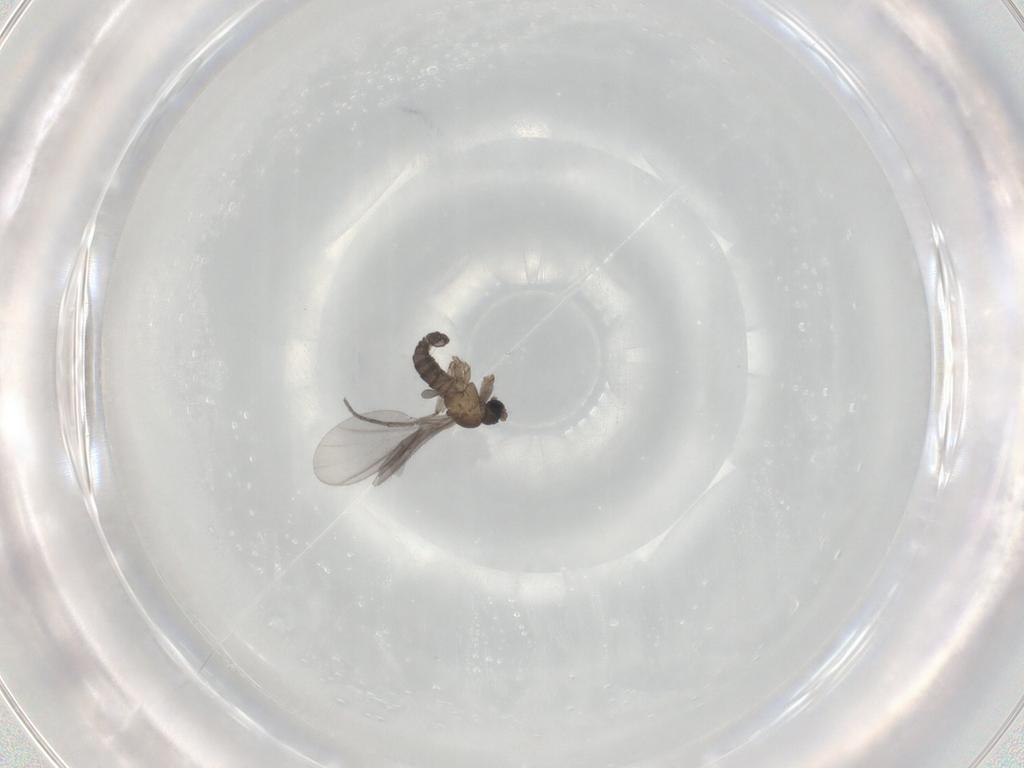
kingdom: Animalia
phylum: Arthropoda
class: Insecta
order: Diptera
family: Sciaridae
